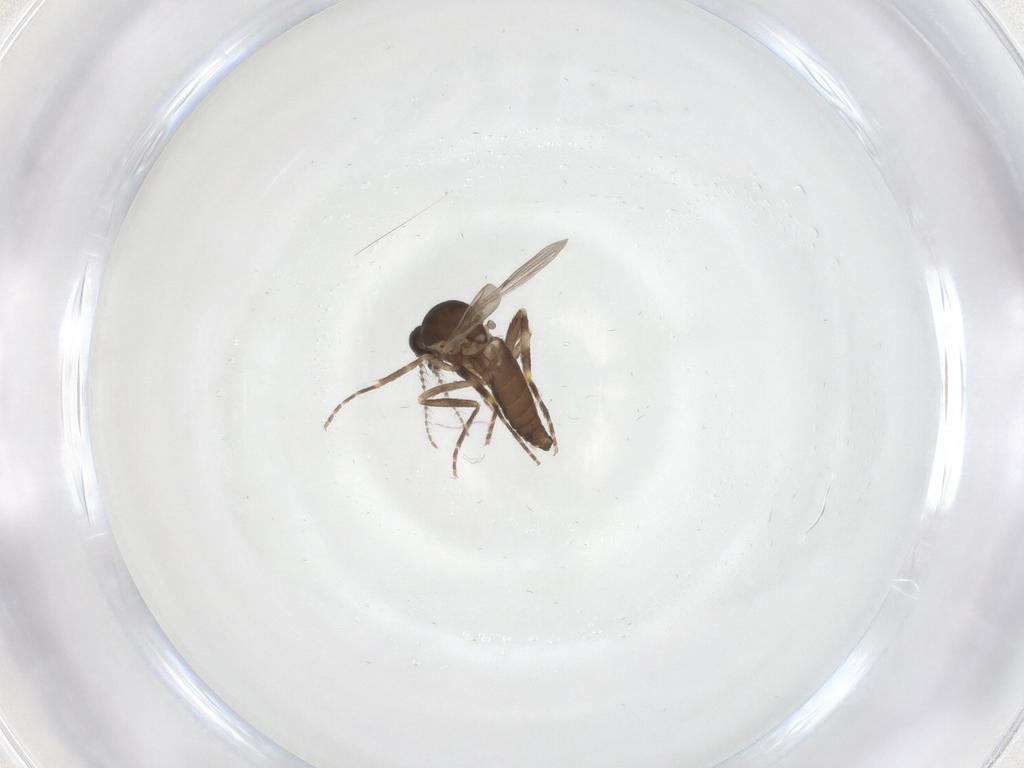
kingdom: Animalia
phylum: Arthropoda
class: Insecta
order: Diptera
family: Ceratopogonidae
